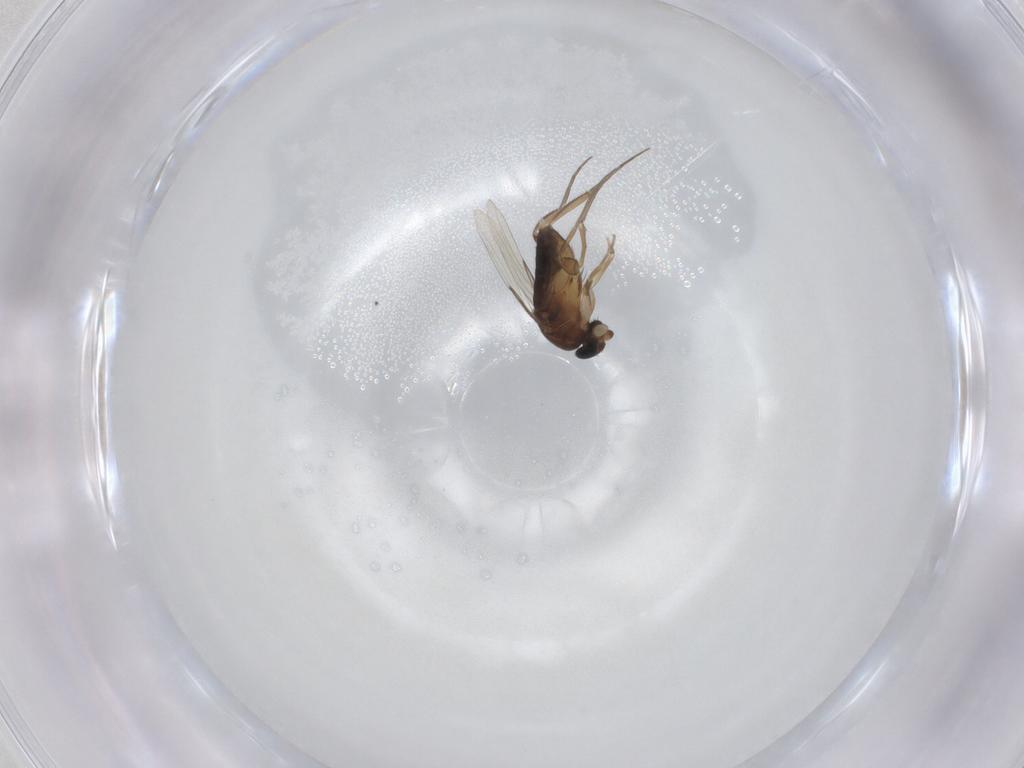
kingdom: Animalia
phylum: Arthropoda
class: Insecta
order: Diptera
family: Phoridae
